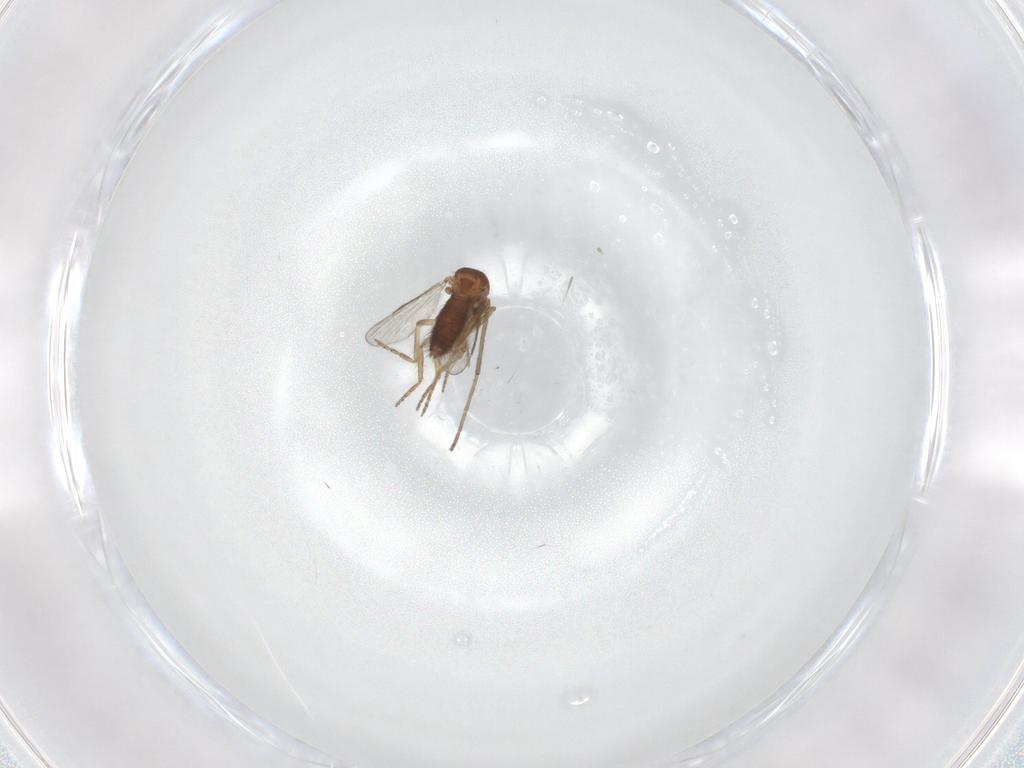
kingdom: Animalia
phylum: Arthropoda
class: Insecta
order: Diptera
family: Chironomidae
